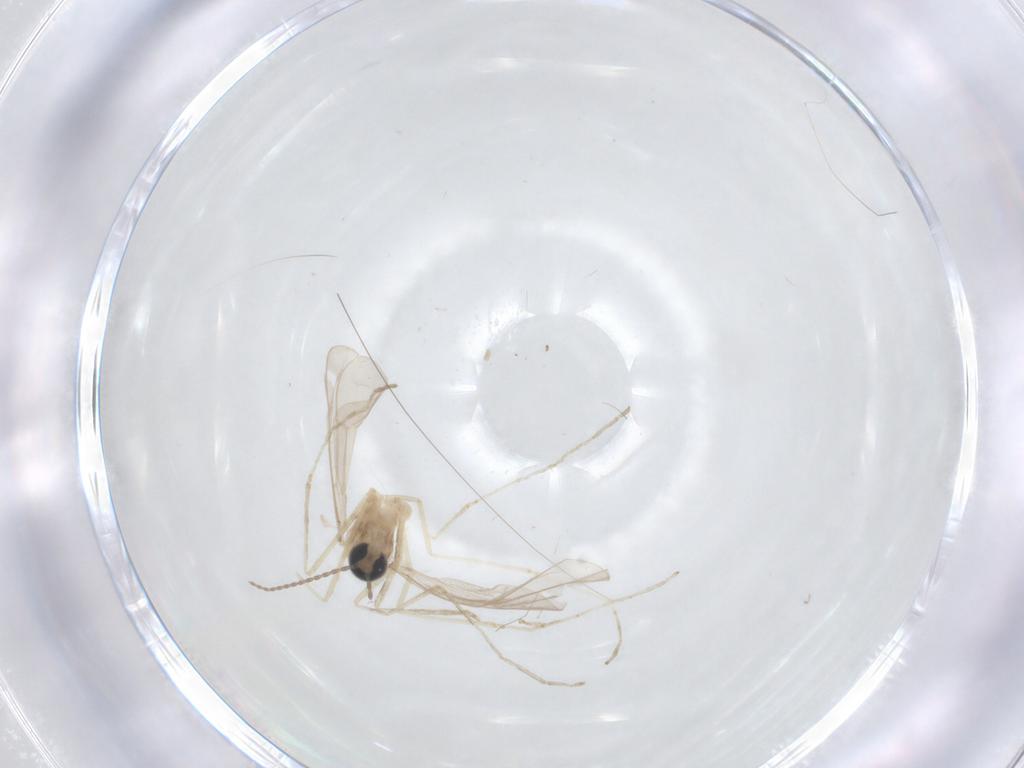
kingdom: Animalia
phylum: Arthropoda
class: Insecta
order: Diptera
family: Cecidomyiidae
